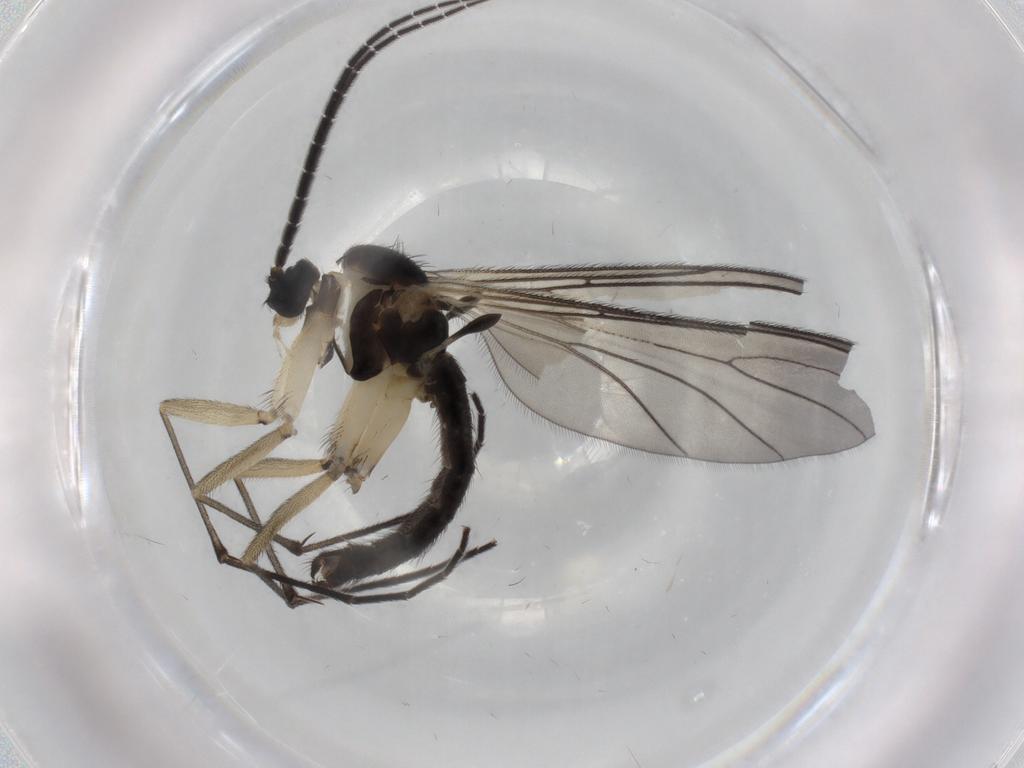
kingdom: Animalia
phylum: Arthropoda
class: Insecta
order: Diptera
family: Sciaridae
